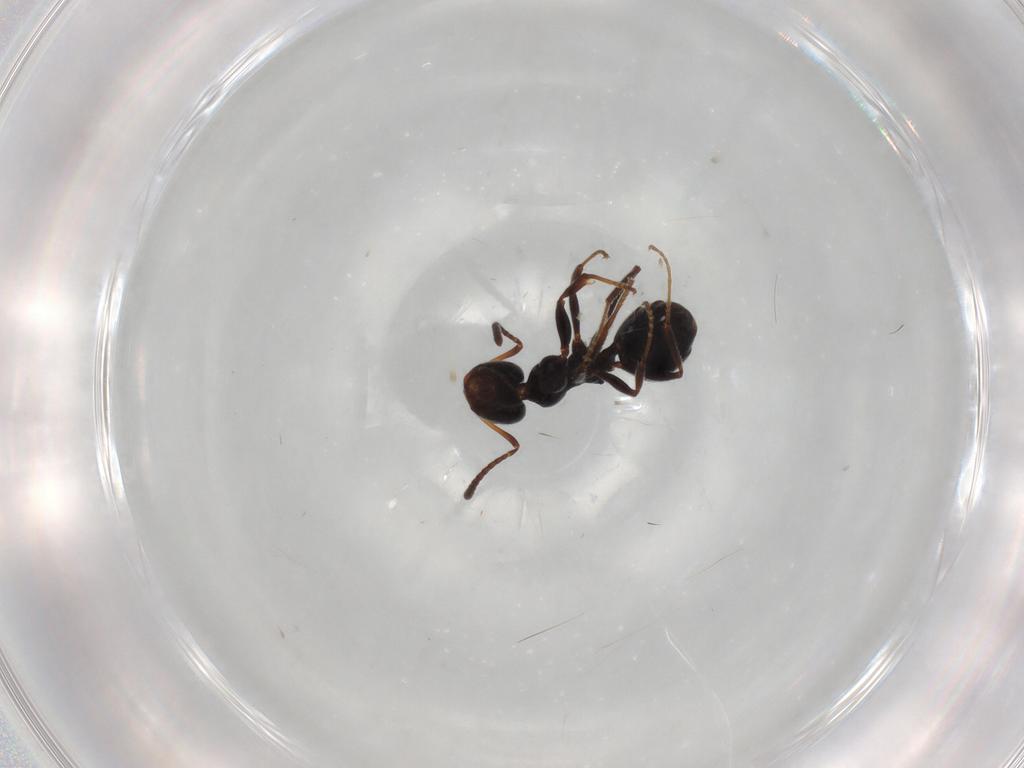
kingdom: Animalia
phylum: Arthropoda
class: Insecta
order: Hymenoptera
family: Formicidae
